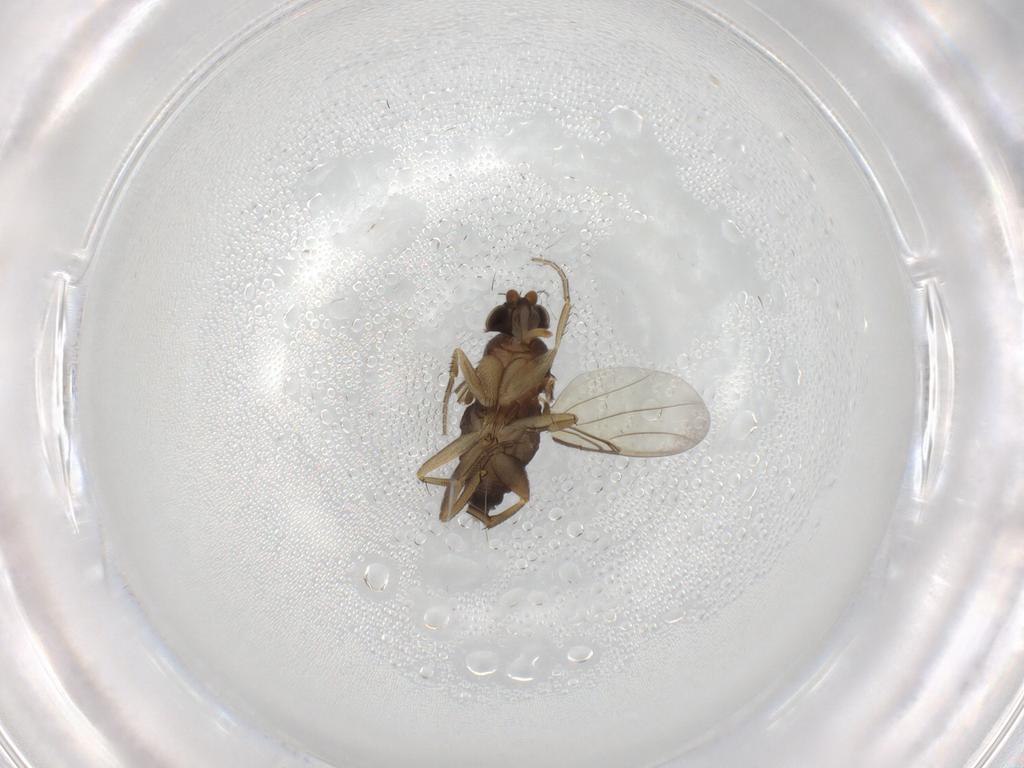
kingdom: Animalia
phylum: Arthropoda
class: Insecta
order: Diptera
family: Phoridae
